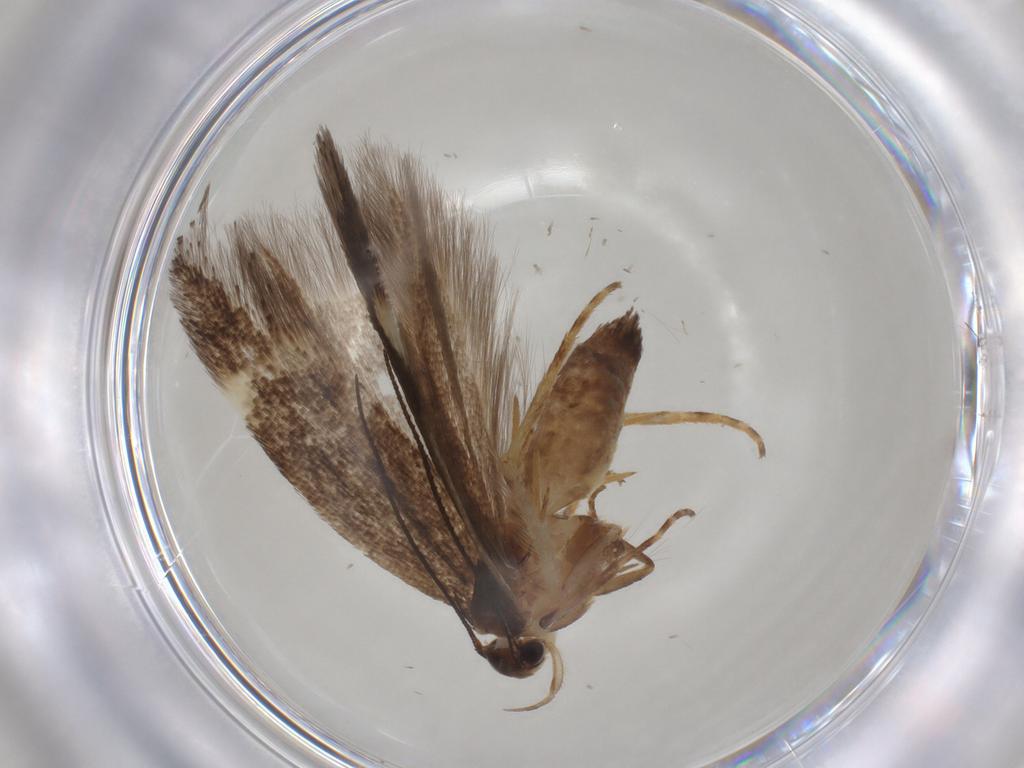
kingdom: Animalia
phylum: Arthropoda
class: Insecta
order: Lepidoptera
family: Gelechiidae
